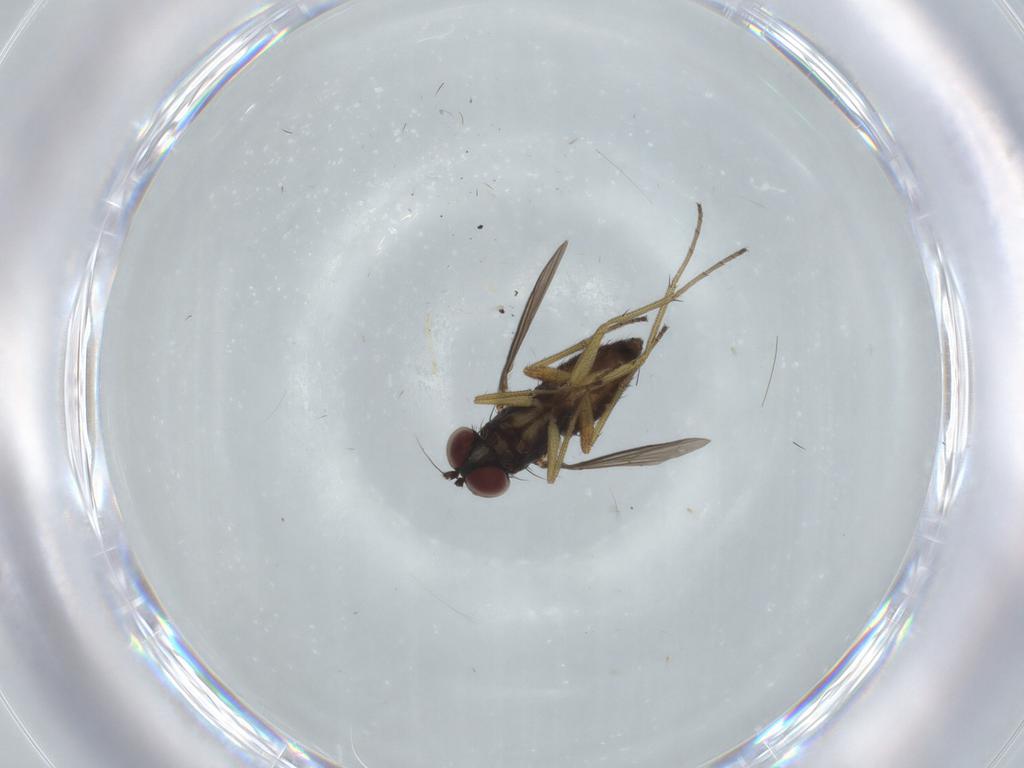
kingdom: Animalia
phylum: Arthropoda
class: Insecta
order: Diptera
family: Dolichopodidae
